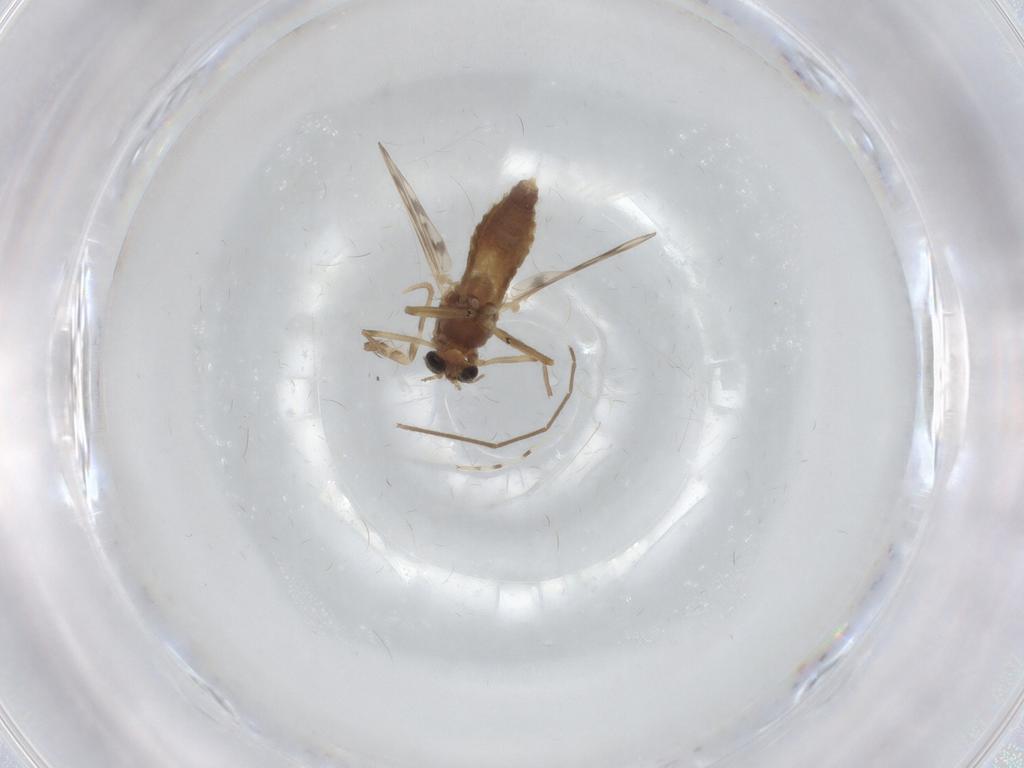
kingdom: Animalia
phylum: Arthropoda
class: Insecta
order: Diptera
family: Chironomidae
